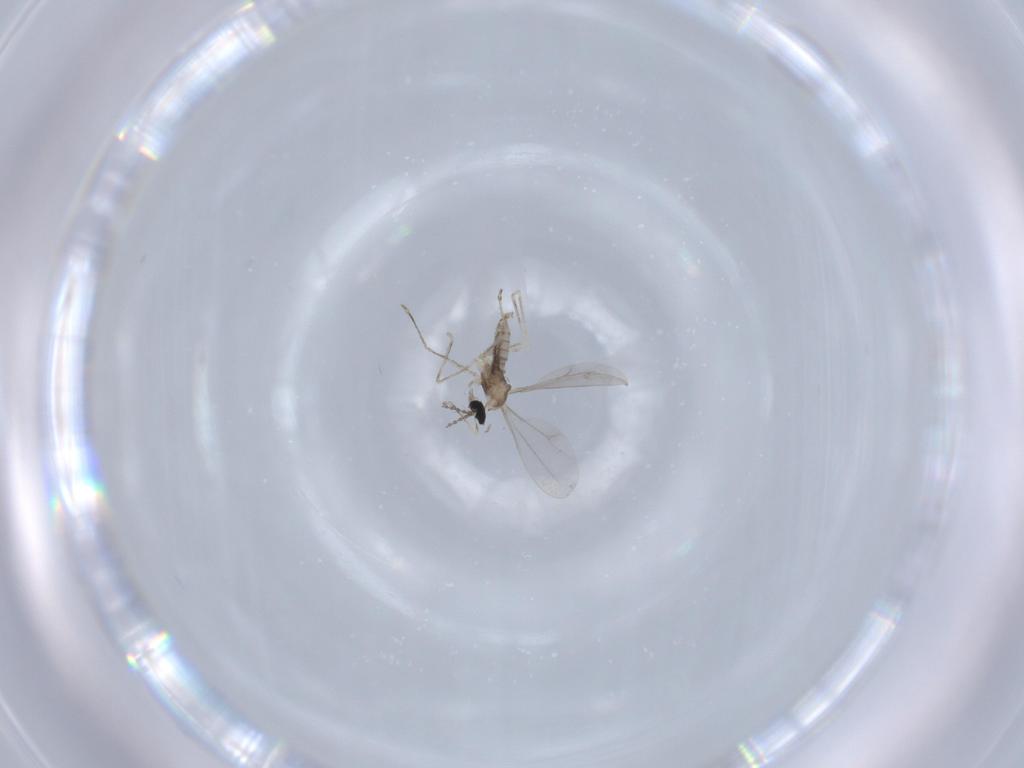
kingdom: Animalia
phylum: Arthropoda
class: Insecta
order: Diptera
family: Cecidomyiidae
